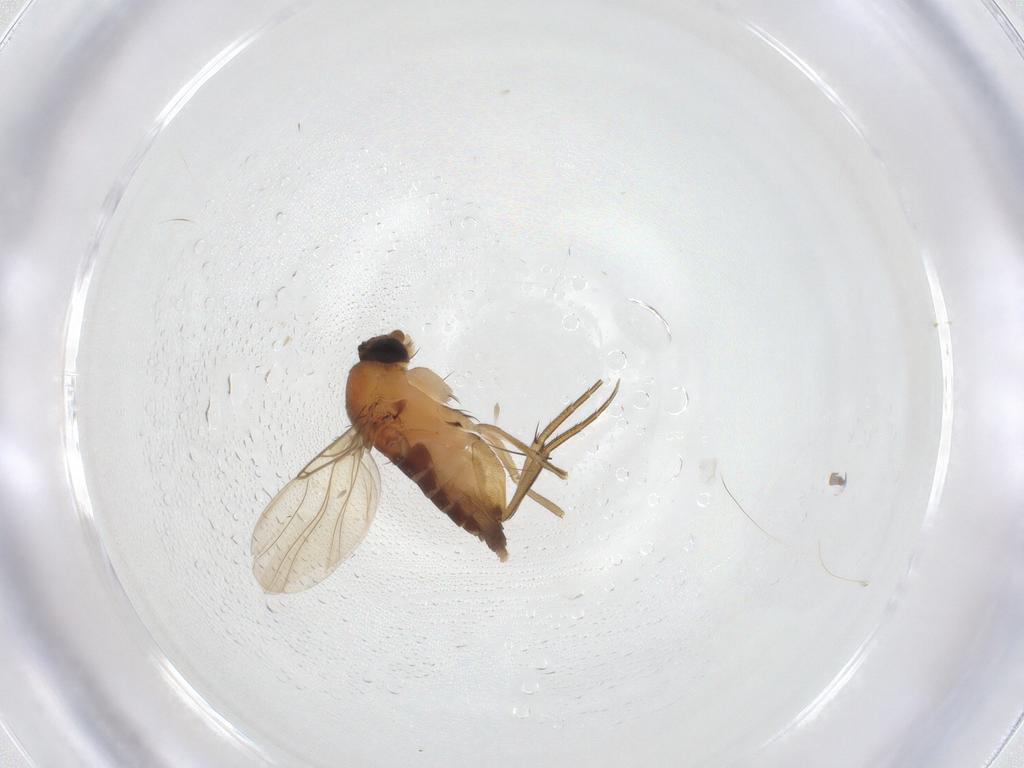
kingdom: Animalia
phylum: Arthropoda
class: Insecta
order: Diptera
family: Phoridae
